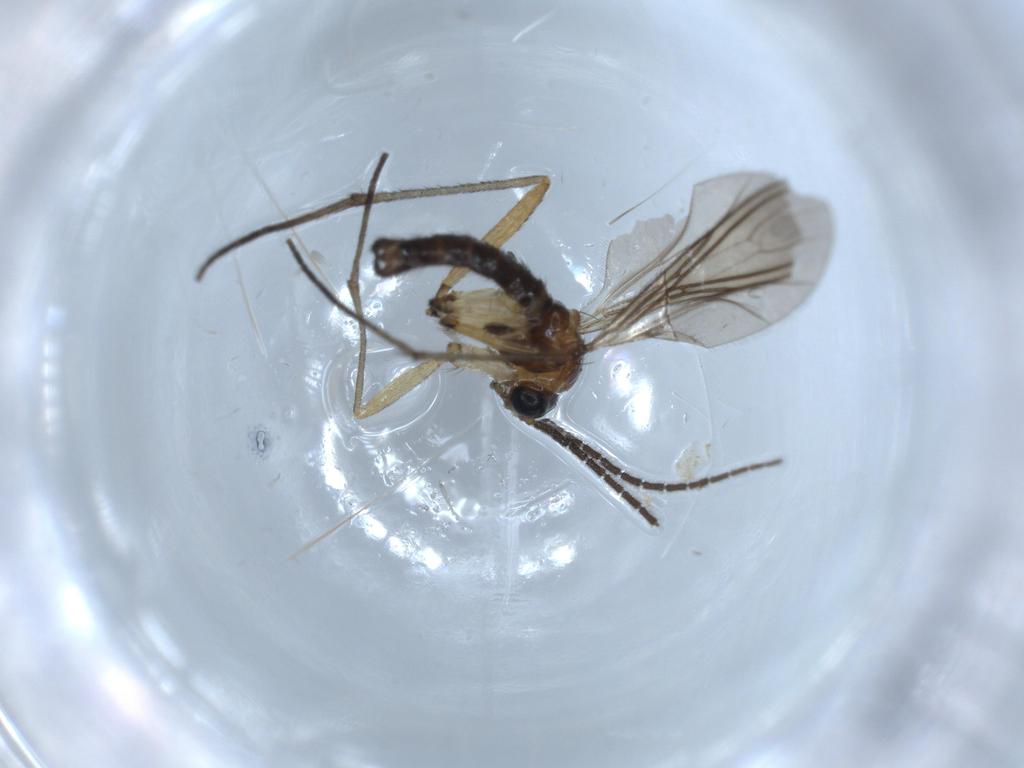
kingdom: Animalia
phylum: Arthropoda
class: Insecta
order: Diptera
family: Sciaridae
